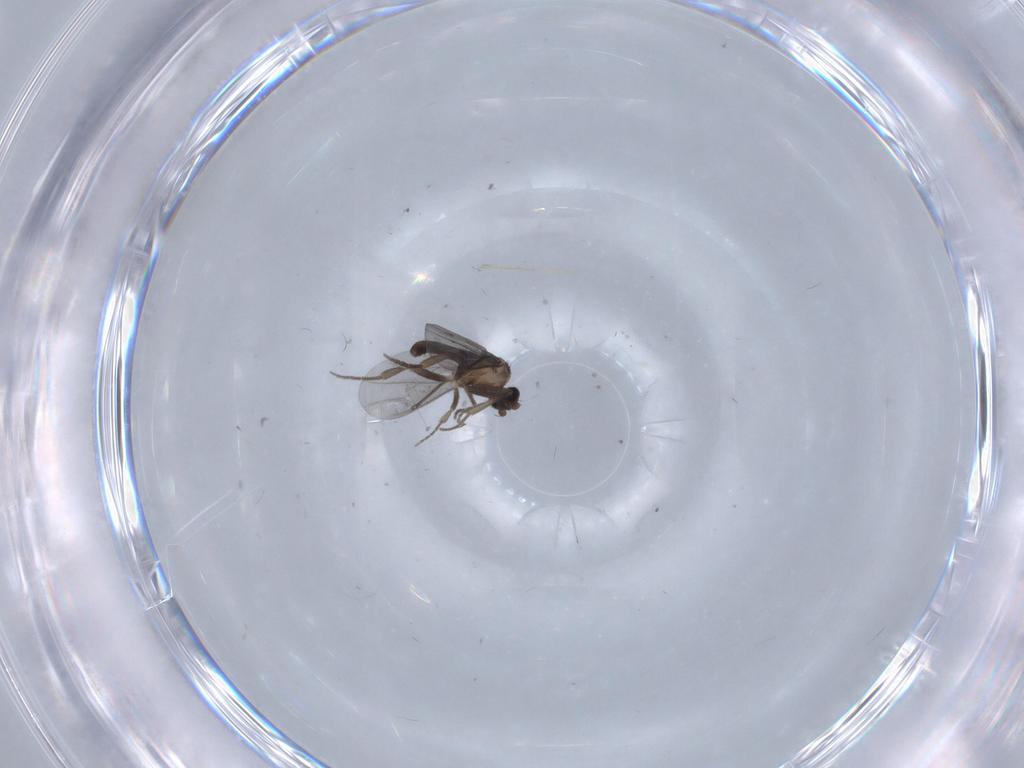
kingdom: Animalia
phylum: Arthropoda
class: Insecta
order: Diptera
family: Phoridae
